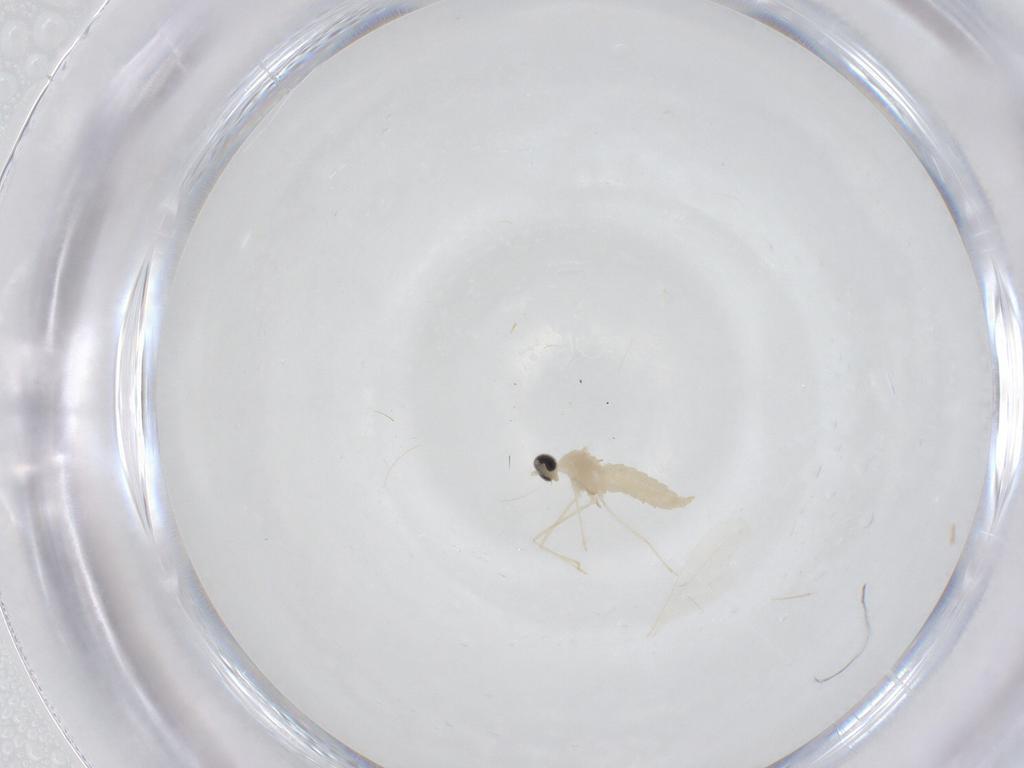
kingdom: Animalia
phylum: Arthropoda
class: Insecta
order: Diptera
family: Cecidomyiidae
